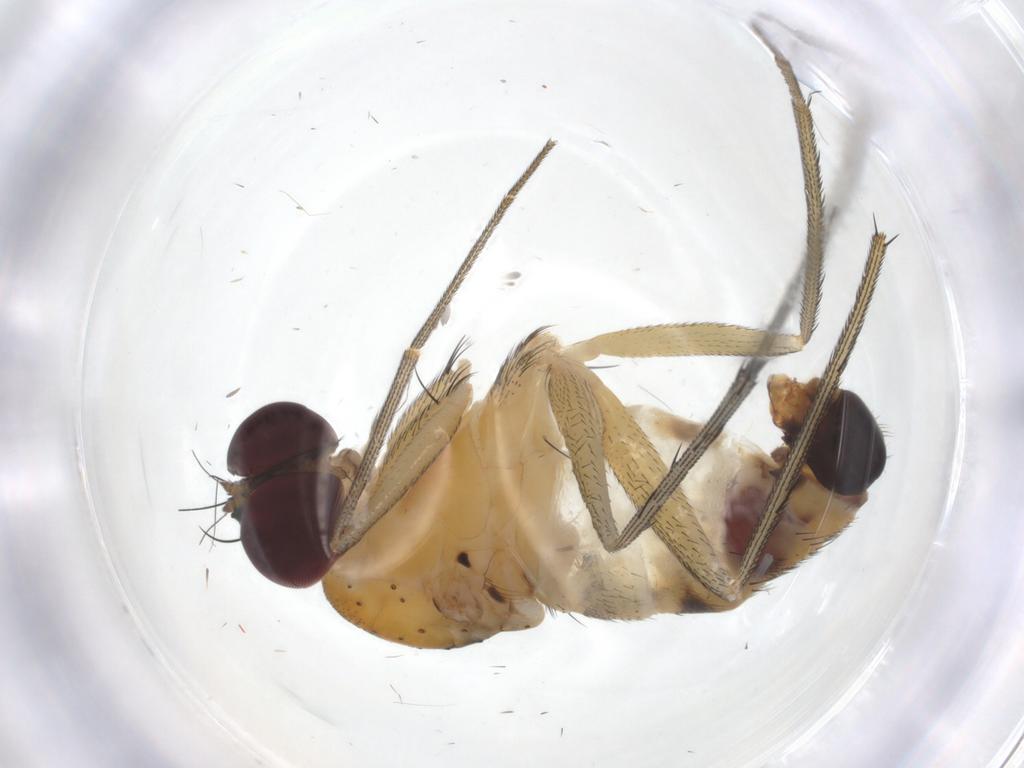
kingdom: Animalia
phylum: Arthropoda
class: Insecta
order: Diptera
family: Dolichopodidae
